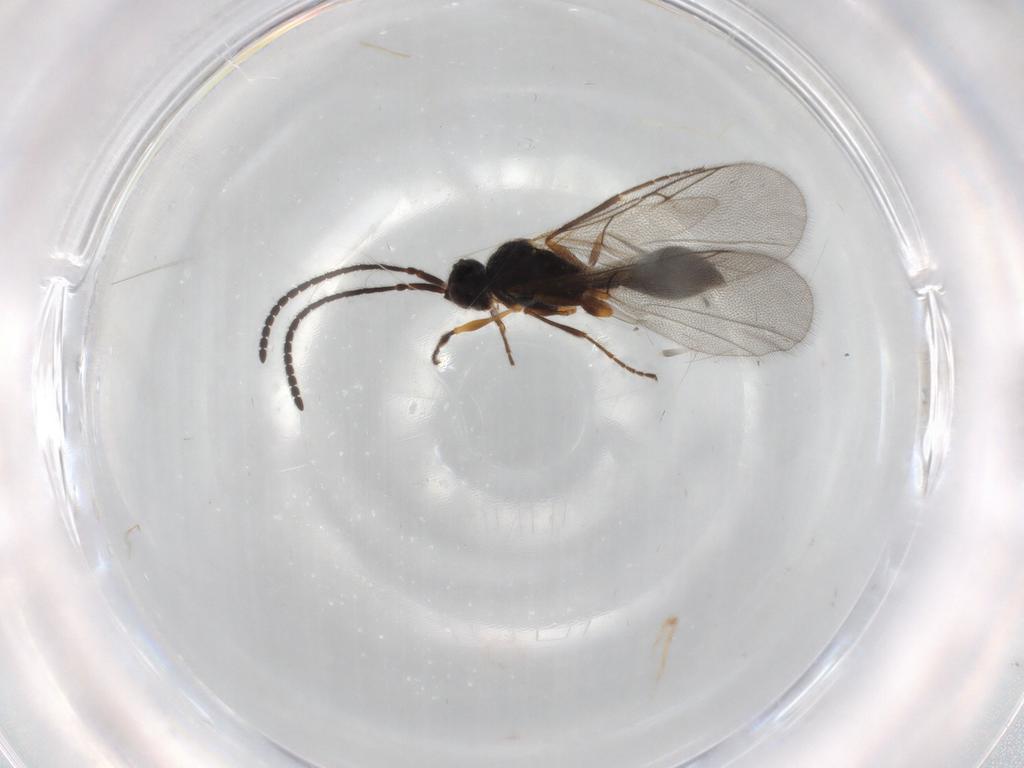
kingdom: Animalia
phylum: Arthropoda
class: Insecta
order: Hymenoptera
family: Diapriidae
